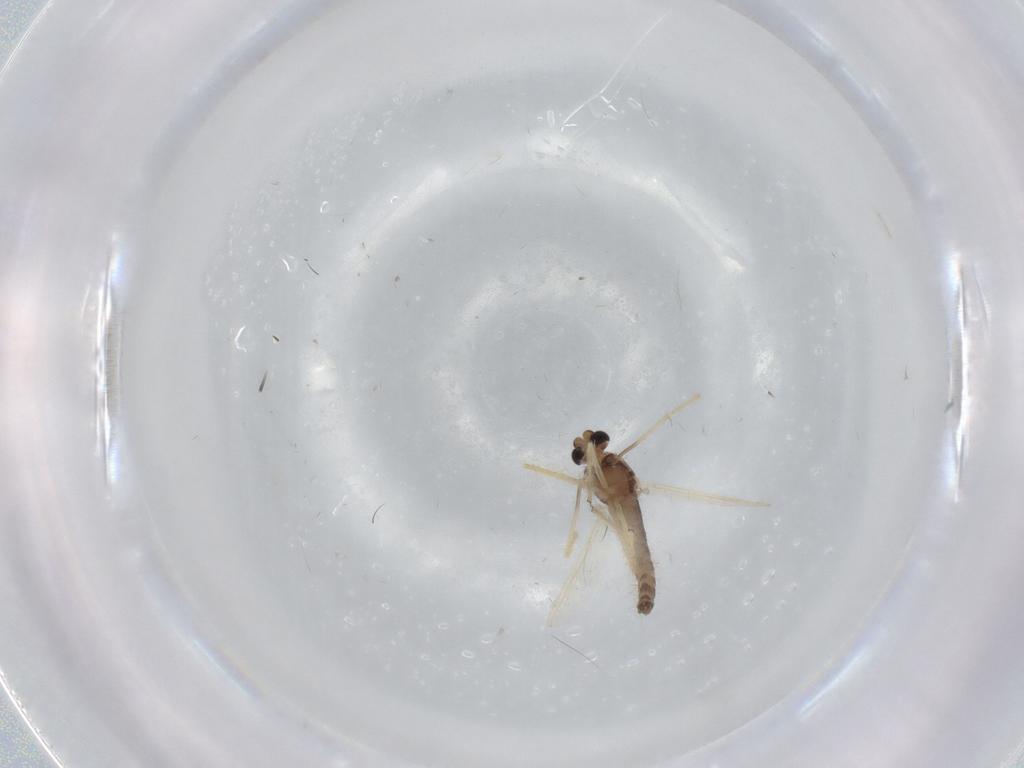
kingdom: Animalia
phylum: Arthropoda
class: Insecta
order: Diptera
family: Chironomidae
